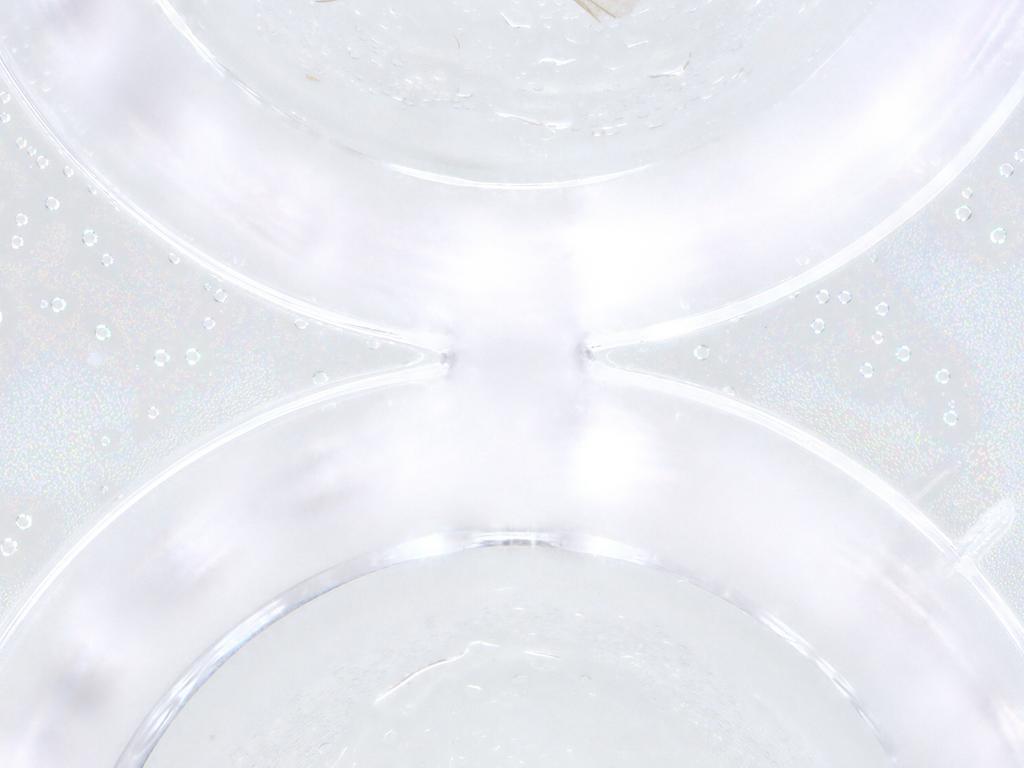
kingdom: Animalia
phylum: Arthropoda
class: Insecta
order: Diptera
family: Cecidomyiidae
